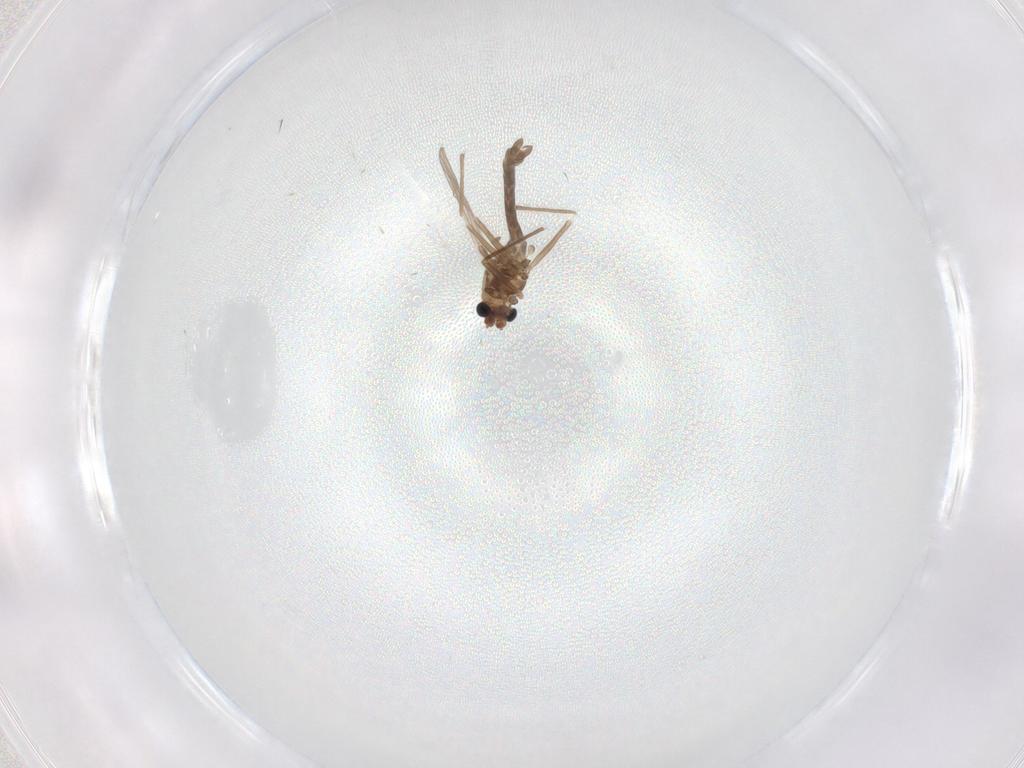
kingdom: Animalia
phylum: Arthropoda
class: Insecta
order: Diptera
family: Chironomidae
